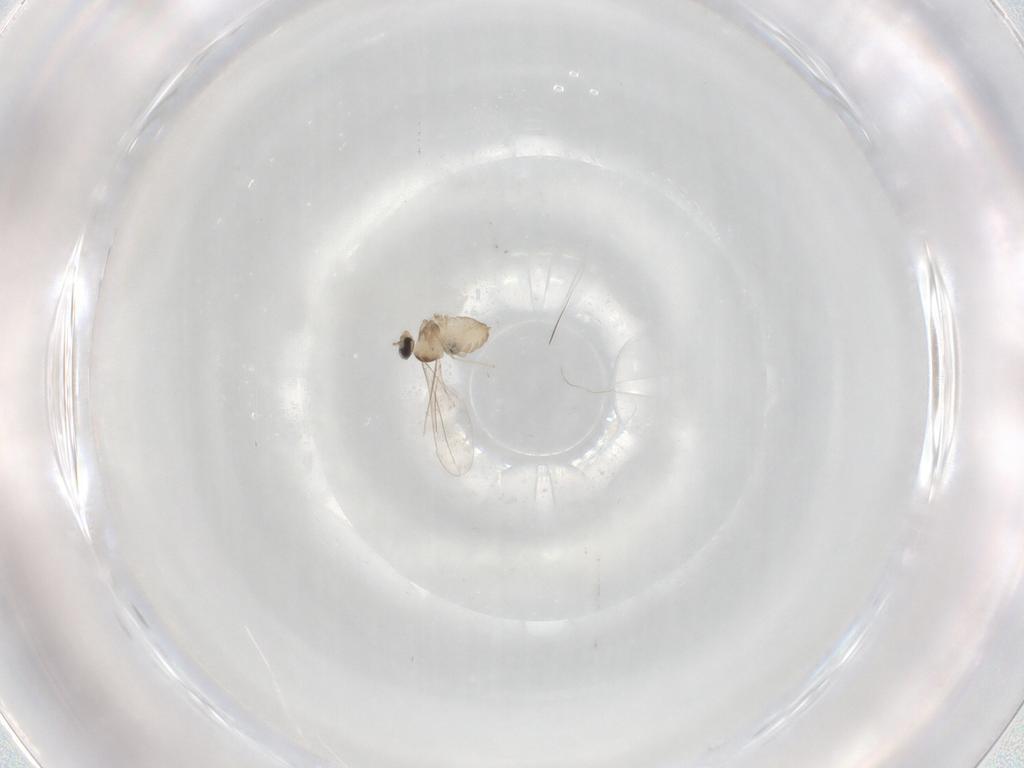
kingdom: Animalia
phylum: Arthropoda
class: Insecta
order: Diptera
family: Cecidomyiidae
